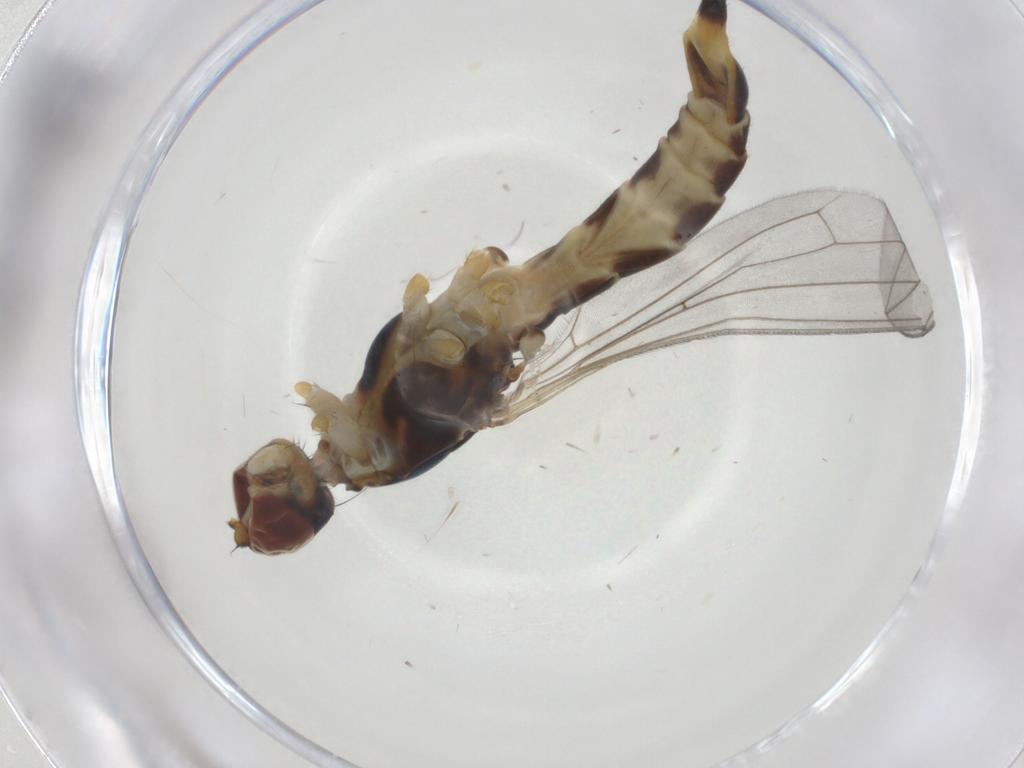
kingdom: Animalia
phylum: Arthropoda
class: Insecta
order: Diptera
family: Micropezidae
